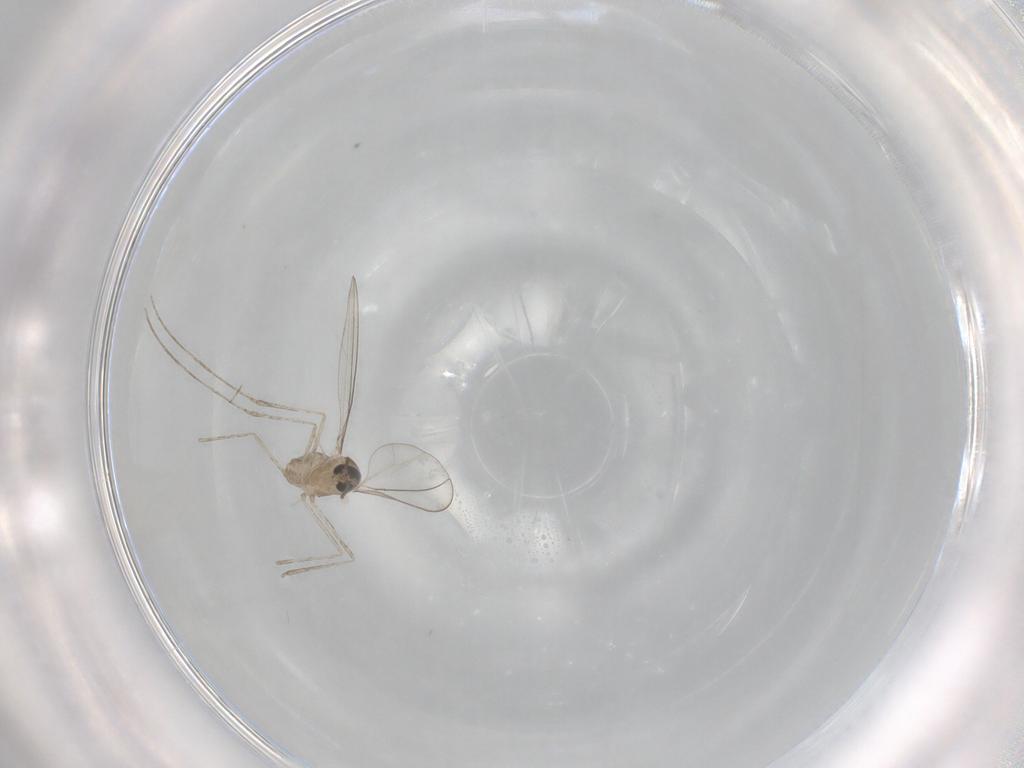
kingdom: Animalia
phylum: Arthropoda
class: Insecta
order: Diptera
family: Cecidomyiidae
